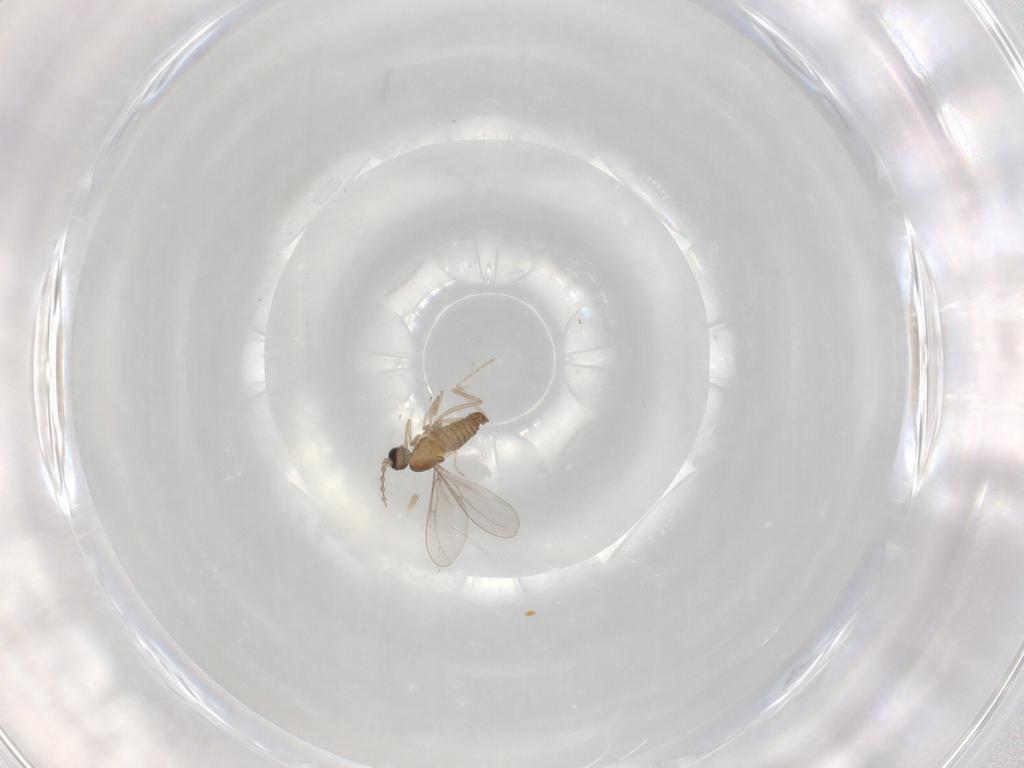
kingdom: Animalia
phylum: Arthropoda
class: Insecta
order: Diptera
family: Cecidomyiidae
